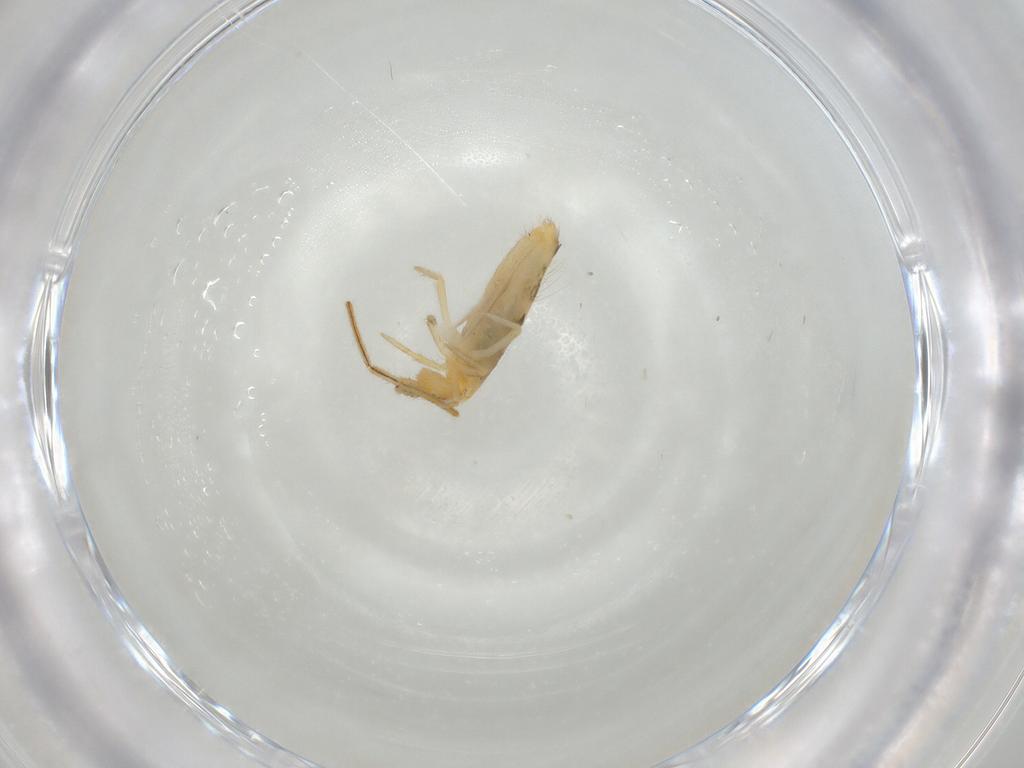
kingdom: Animalia
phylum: Arthropoda
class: Collembola
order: Entomobryomorpha
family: Entomobryidae
